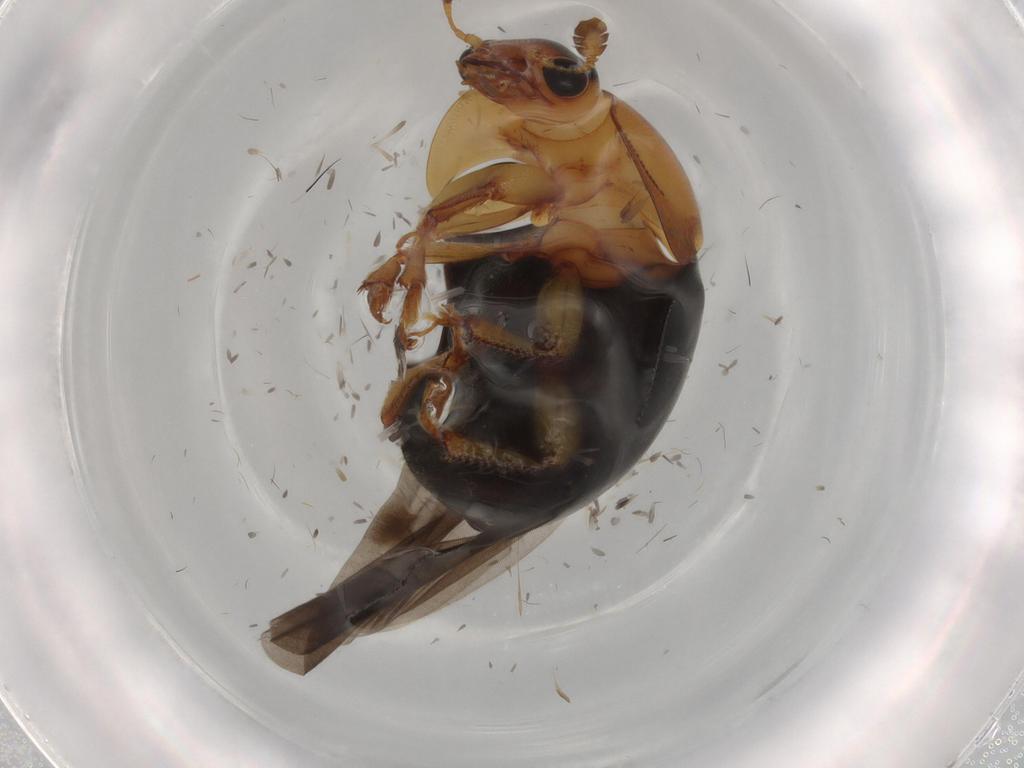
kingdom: Animalia
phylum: Arthropoda
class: Insecta
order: Coleoptera
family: Nitidulidae
